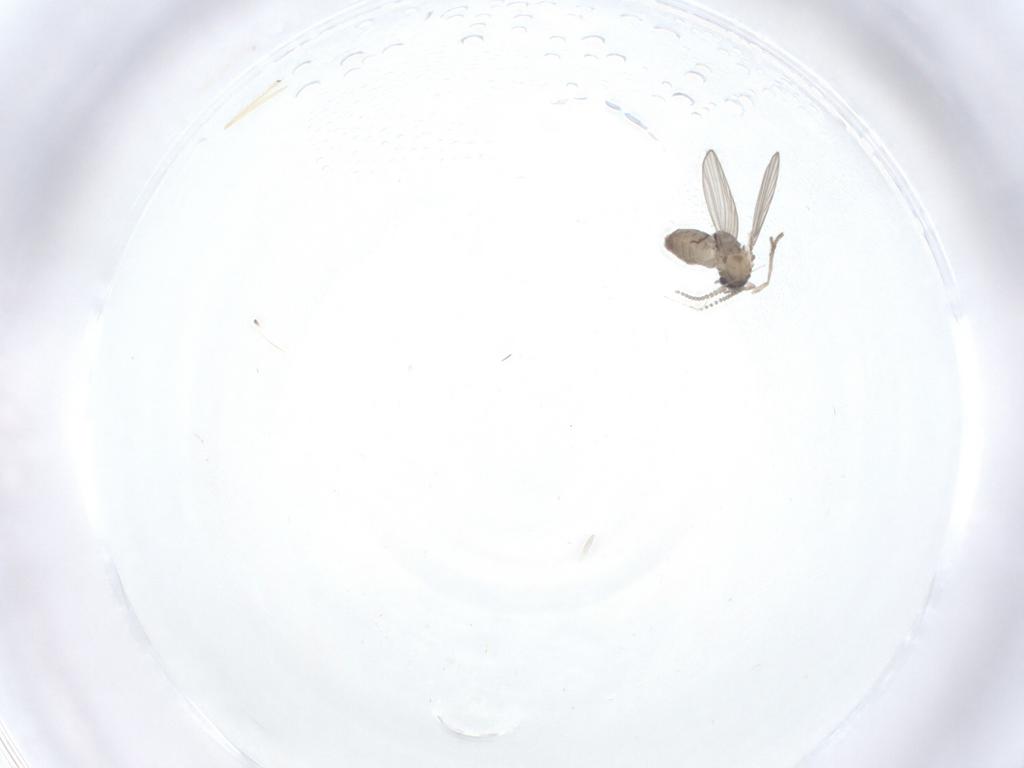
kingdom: Animalia
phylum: Arthropoda
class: Insecta
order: Diptera
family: Psychodidae
